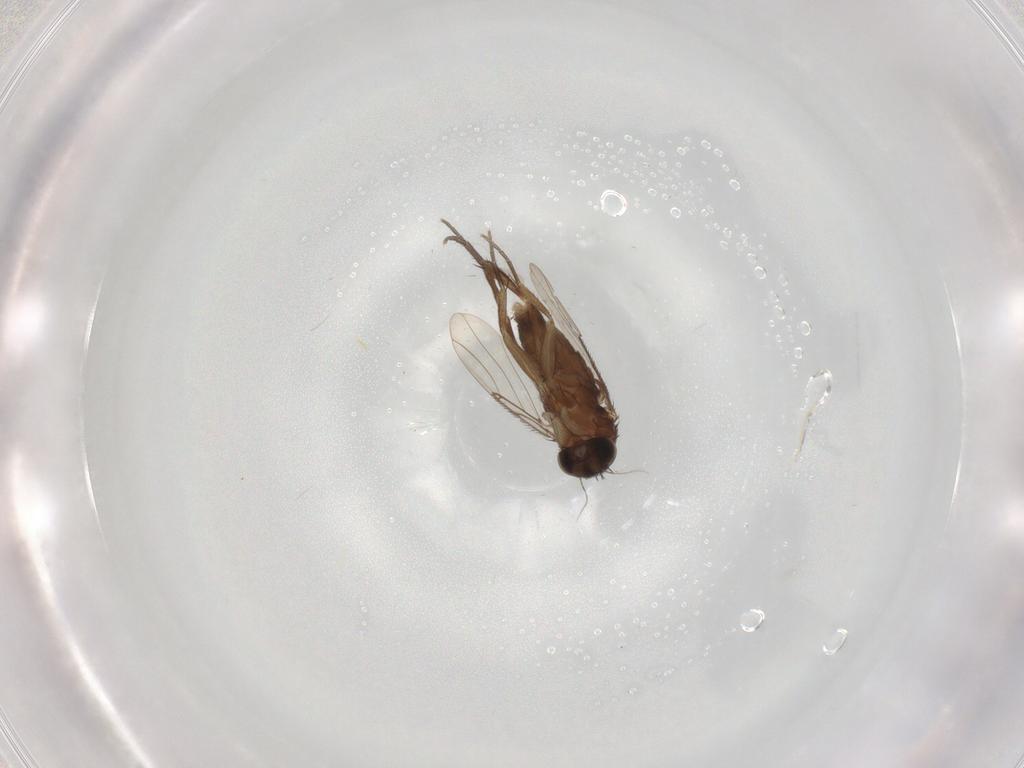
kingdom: Animalia
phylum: Arthropoda
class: Insecta
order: Diptera
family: Phoridae
